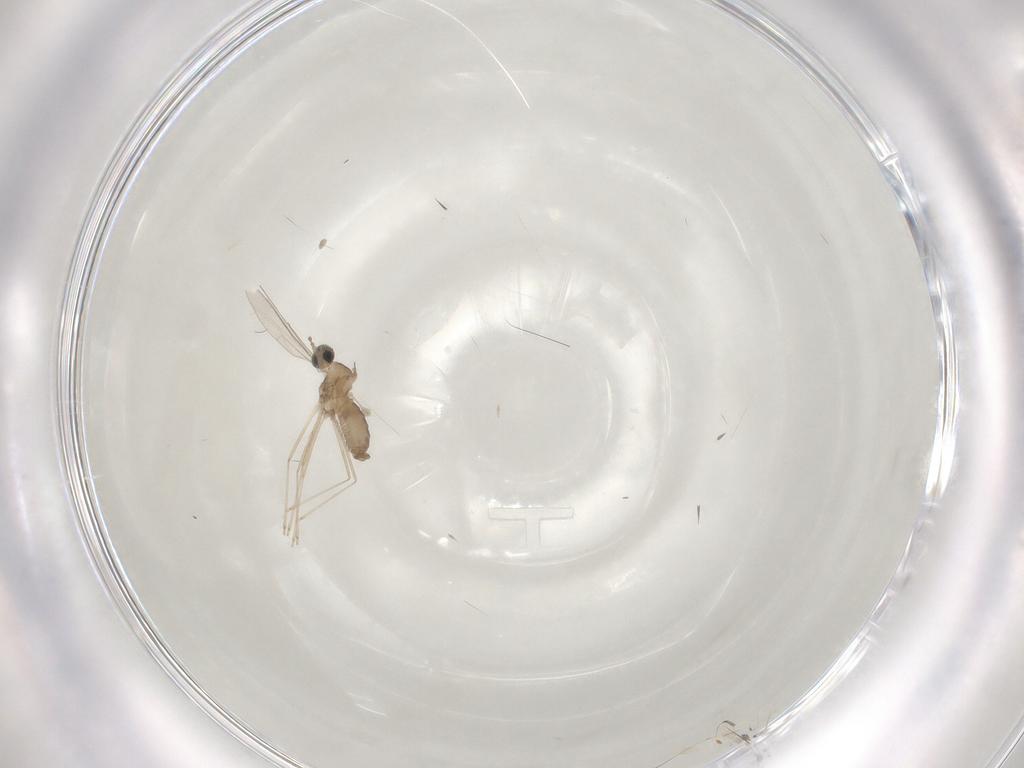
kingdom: Animalia
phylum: Arthropoda
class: Insecta
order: Diptera
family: Cecidomyiidae
